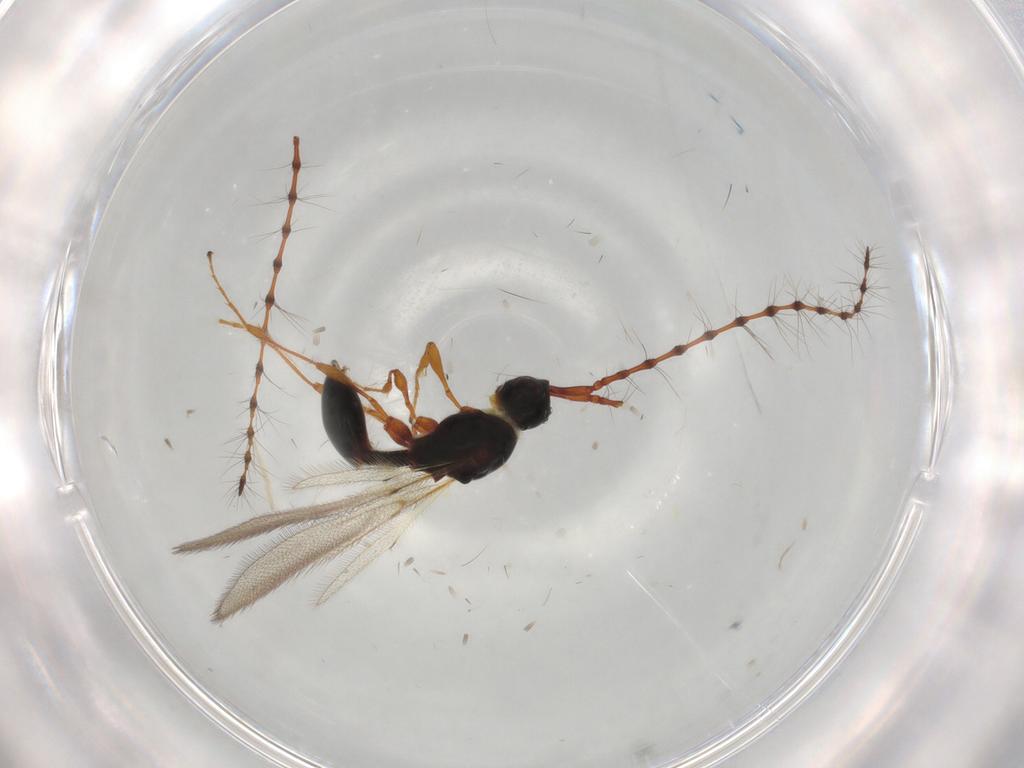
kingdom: Animalia
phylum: Arthropoda
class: Insecta
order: Hymenoptera
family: Diapriidae
